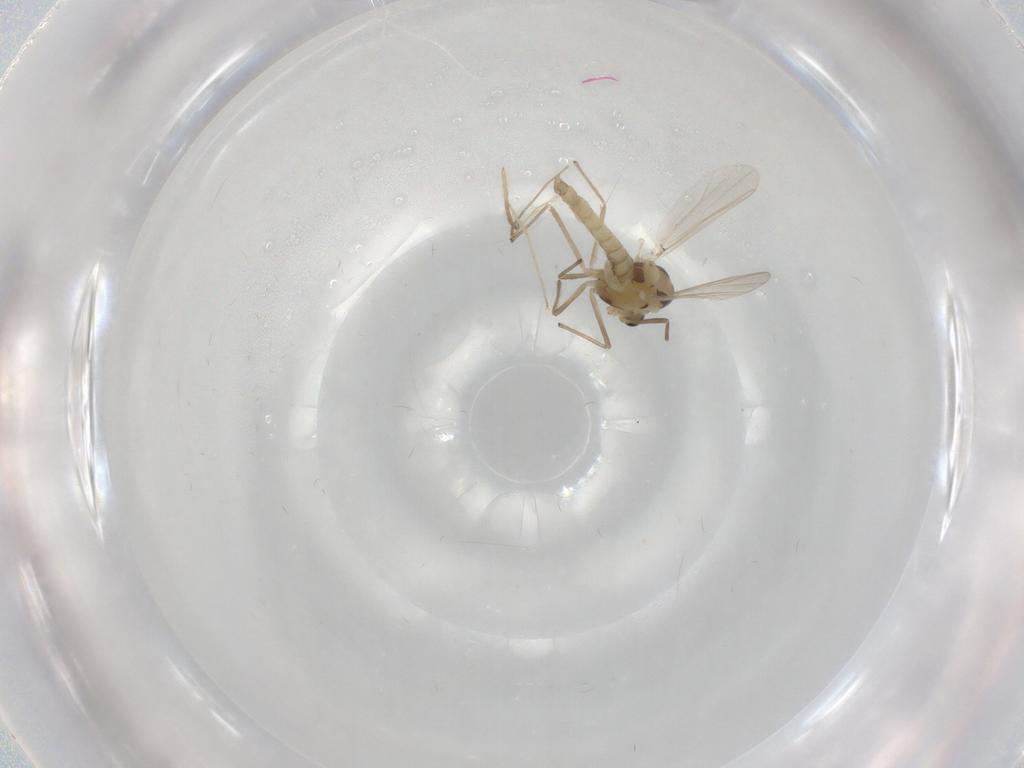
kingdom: Animalia
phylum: Arthropoda
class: Insecta
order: Diptera
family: Chironomidae
